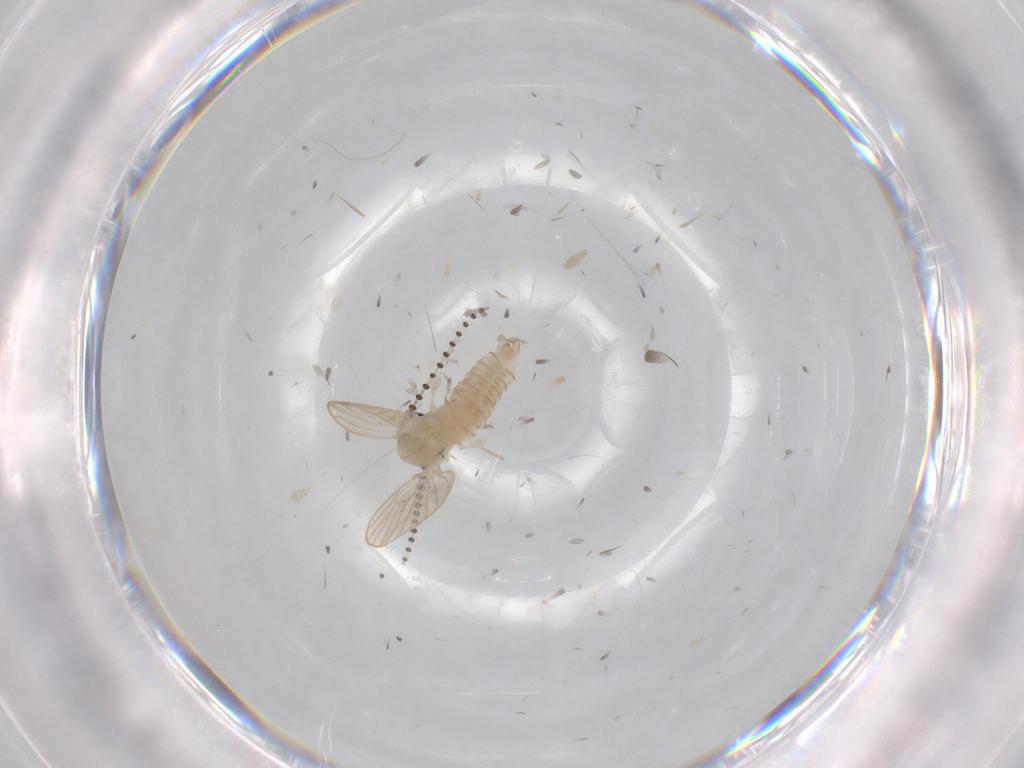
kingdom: Animalia
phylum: Arthropoda
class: Insecta
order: Diptera
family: Psychodidae
